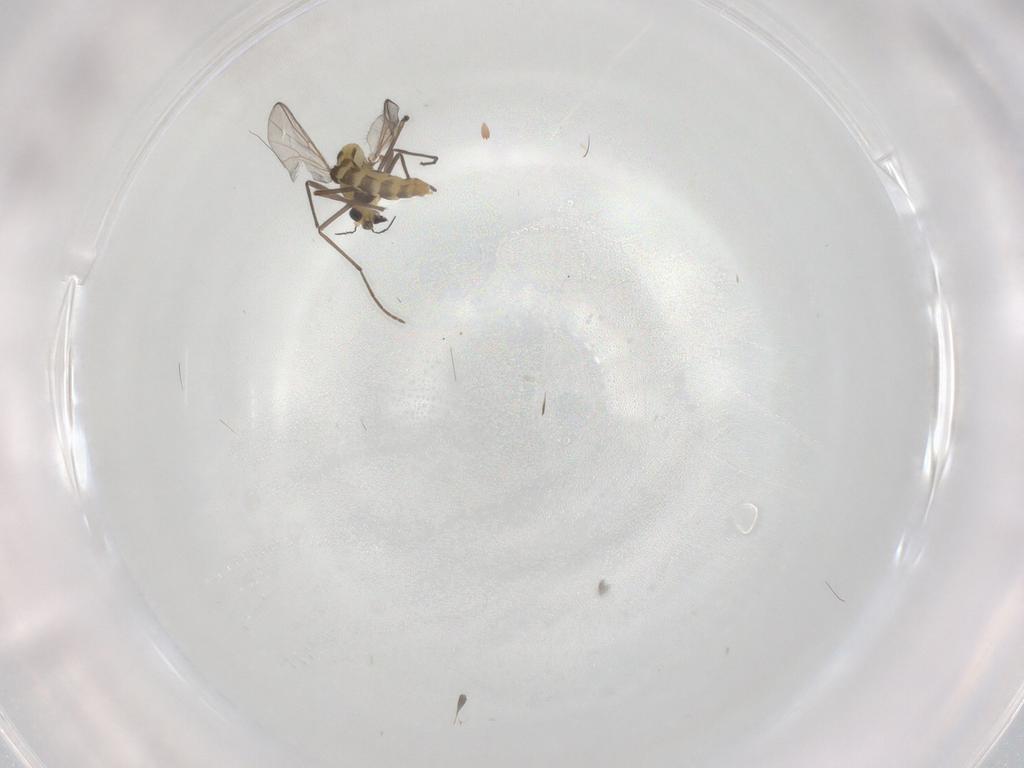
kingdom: Animalia
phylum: Arthropoda
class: Insecta
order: Diptera
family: Chironomidae
